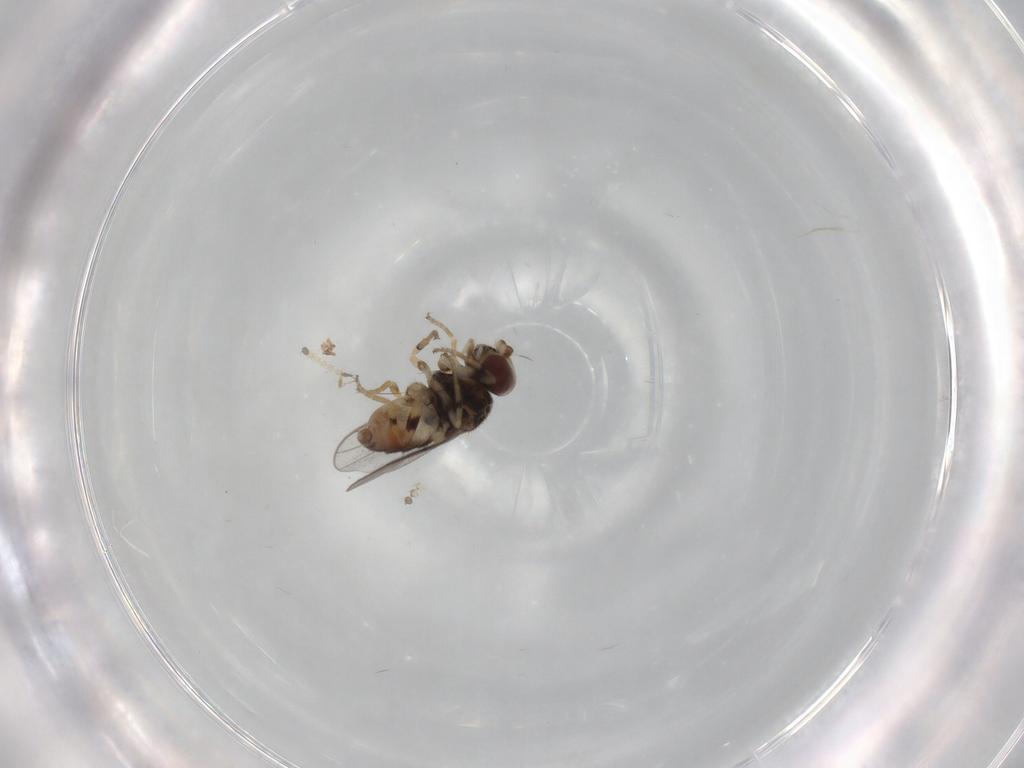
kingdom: Animalia
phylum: Arthropoda
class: Insecta
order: Diptera
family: Chloropidae
